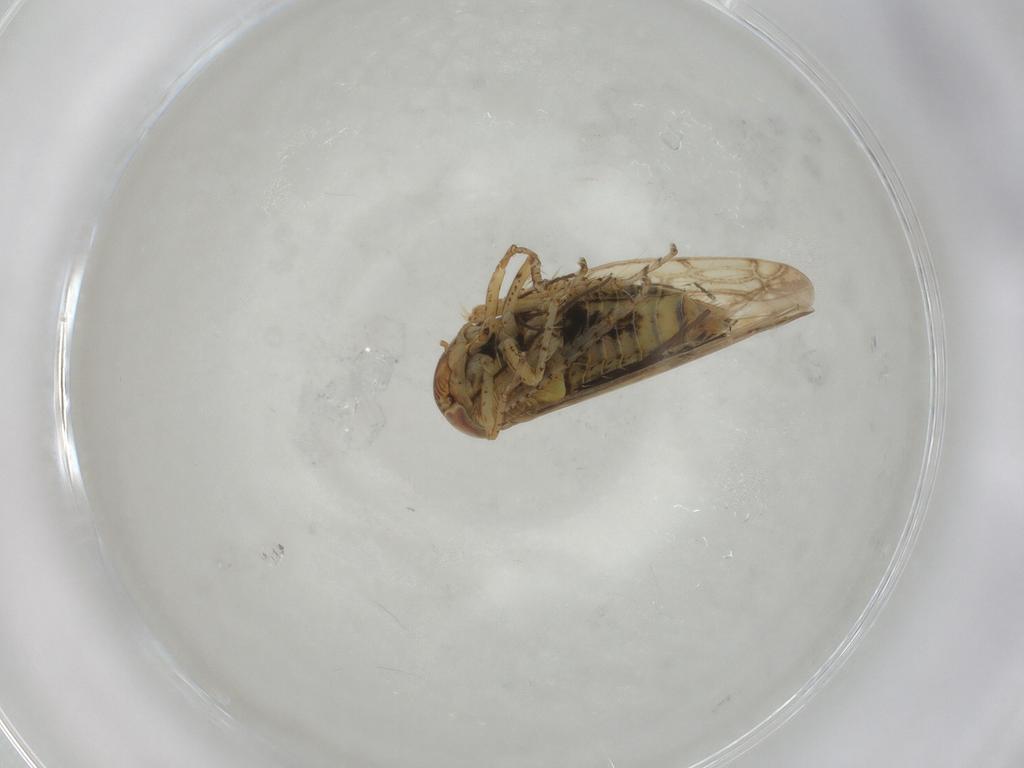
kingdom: Animalia
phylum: Arthropoda
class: Insecta
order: Hemiptera
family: Cicadellidae
